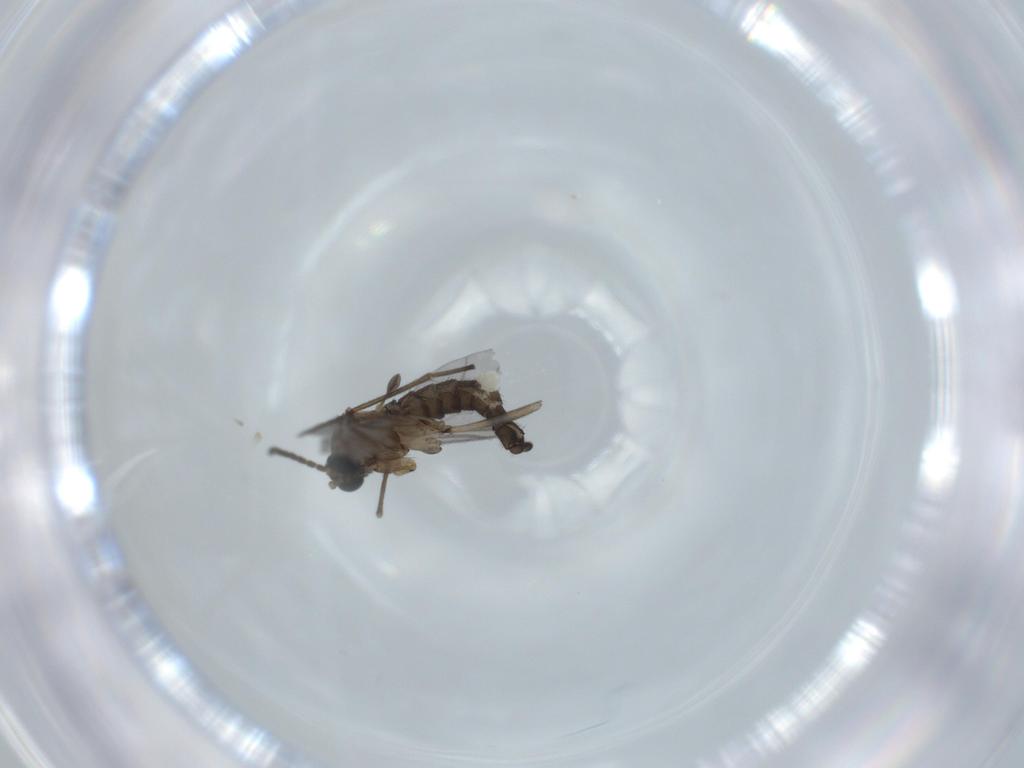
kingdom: Animalia
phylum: Arthropoda
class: Insecta
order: Diptera
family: Sciaridae
